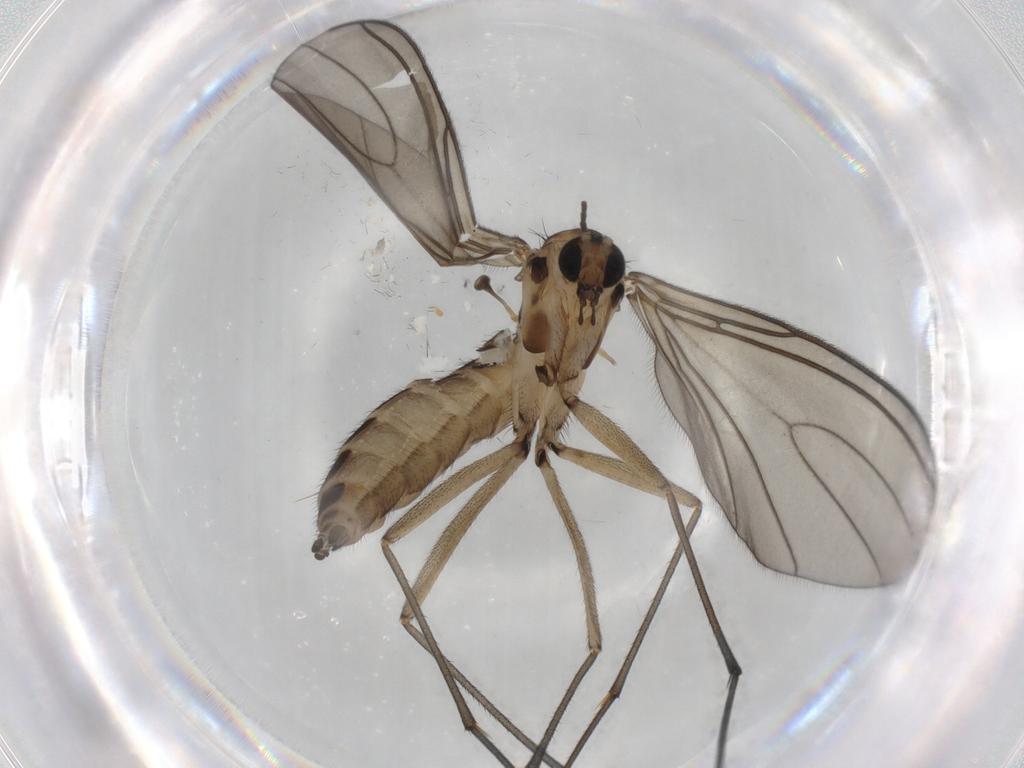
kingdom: Animalia
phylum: Arthropoda
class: Insecta
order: Diptera
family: Sciaridae
